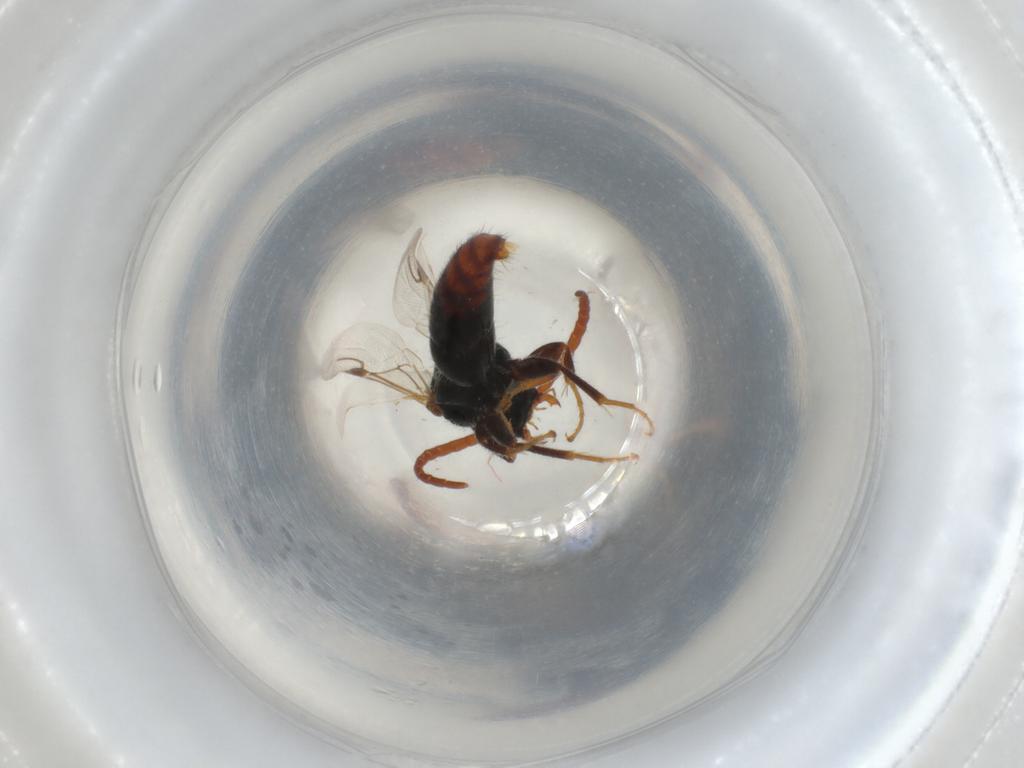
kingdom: Animalia
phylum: Arthropoda
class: Insecta
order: Hymenoptera
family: Bethylidae
